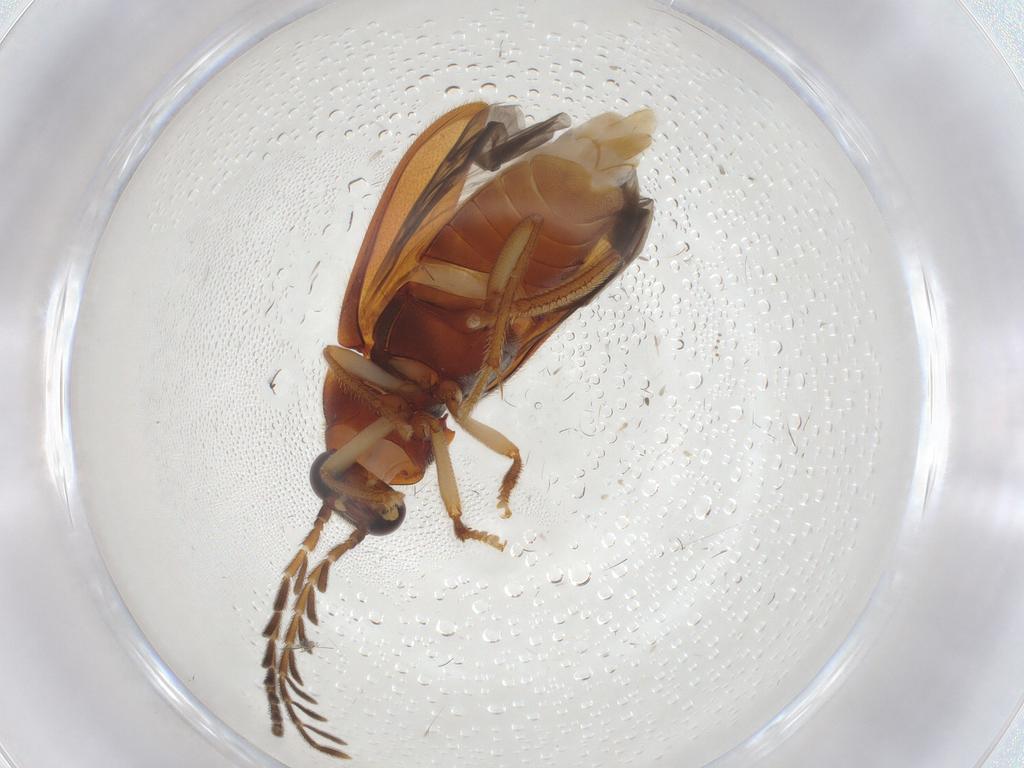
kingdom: Animalia
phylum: Arthropoda
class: Insecta
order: Coleoptera
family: Ptilodactylidae
